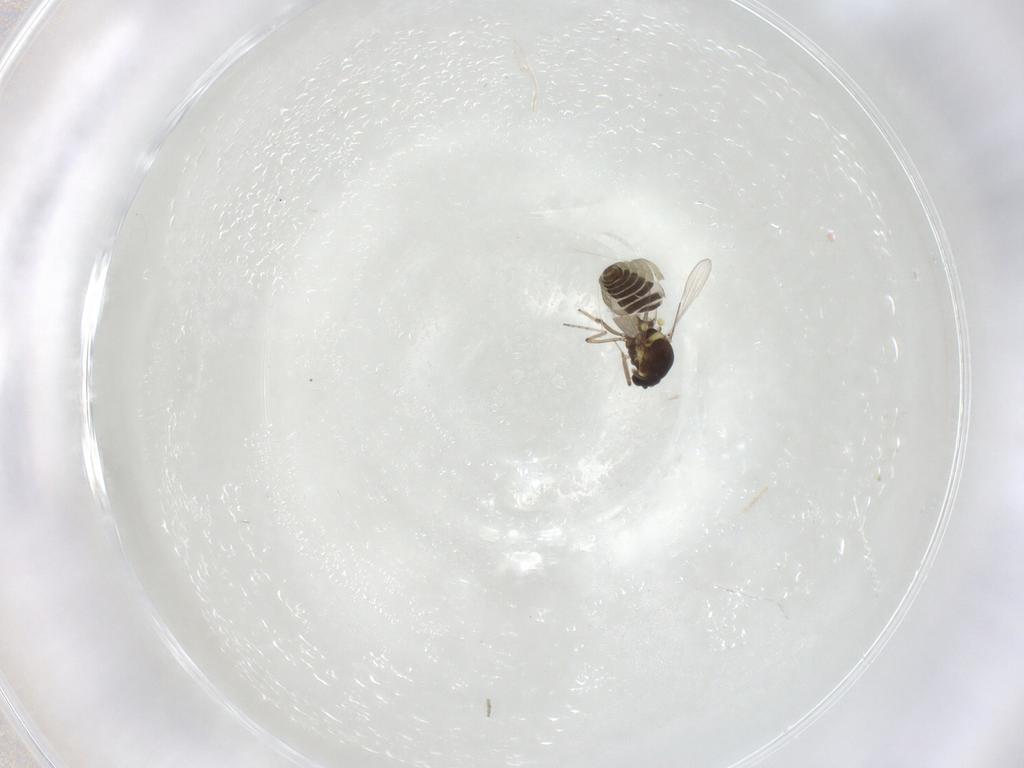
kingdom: Animalia
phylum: Arthropoda
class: Insecta
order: Diptera
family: Ceratopogonidae
